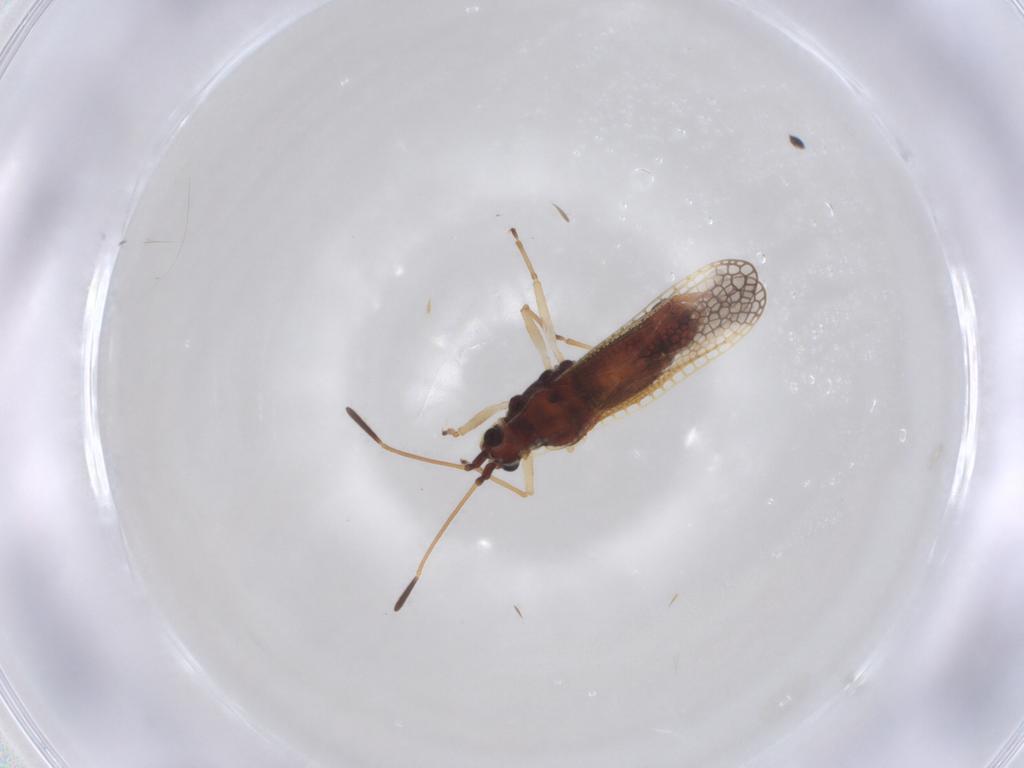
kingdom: Animalia
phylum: Arthropoda
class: Insecta
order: Hemiptera
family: Tingidae
